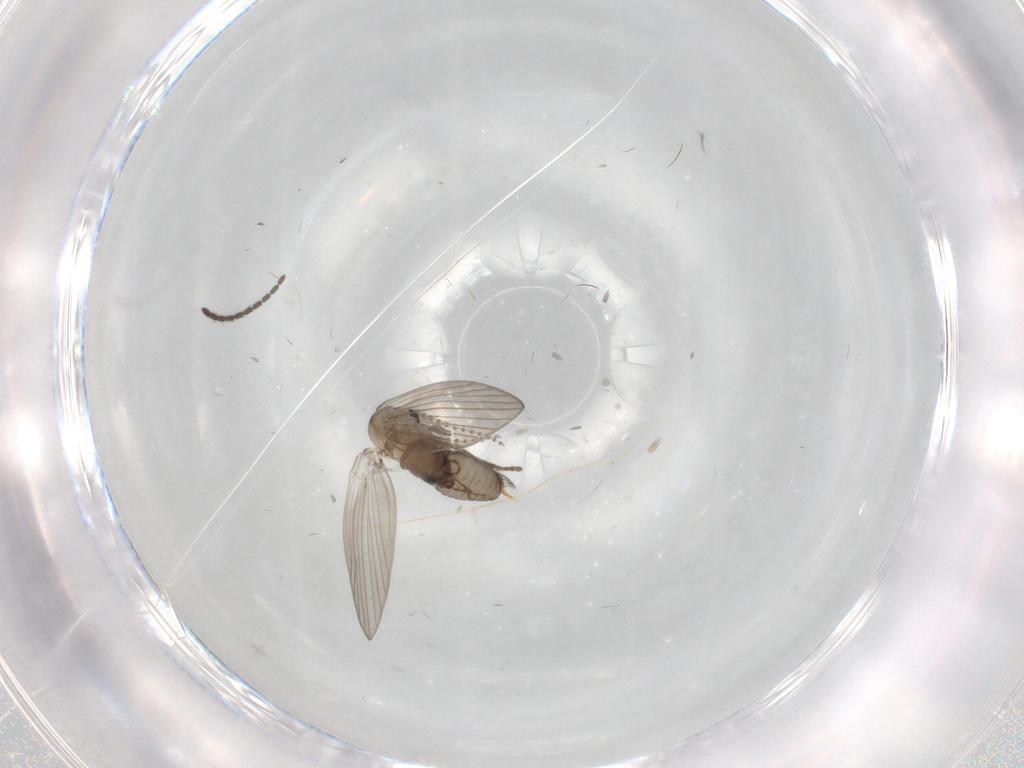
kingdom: Animalia
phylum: Arthropoda
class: Insecta
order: Diptera
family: Psychodidae
